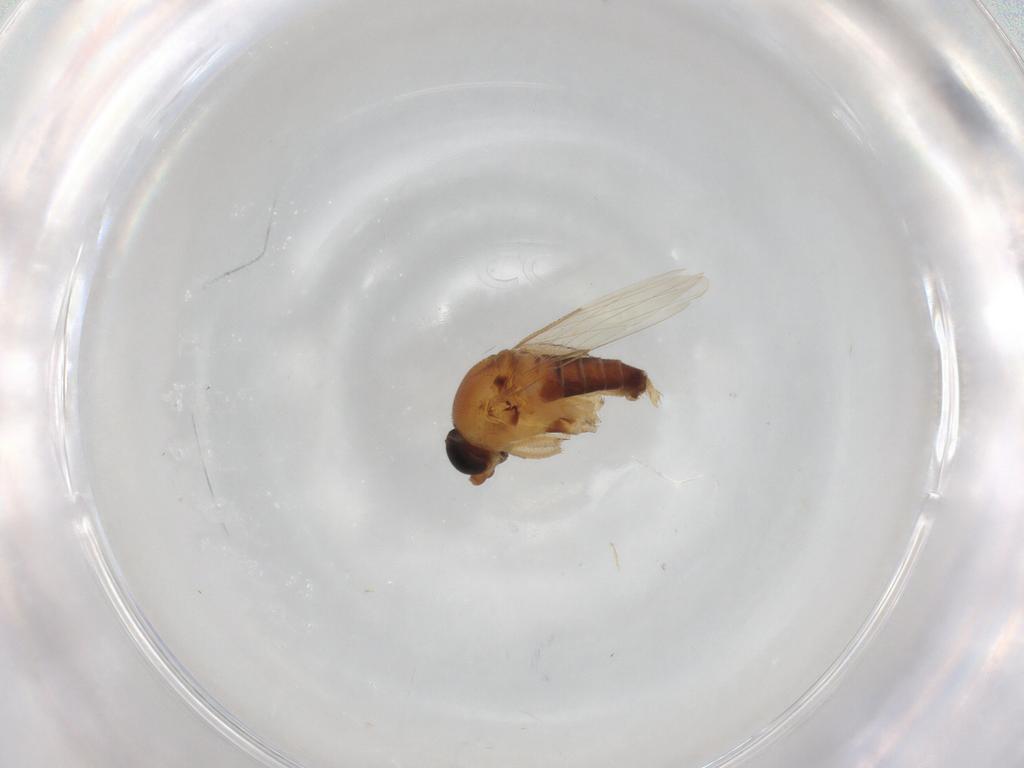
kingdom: Animalia
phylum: Arthropoda
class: Insecta
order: Diptera
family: Phoridae
